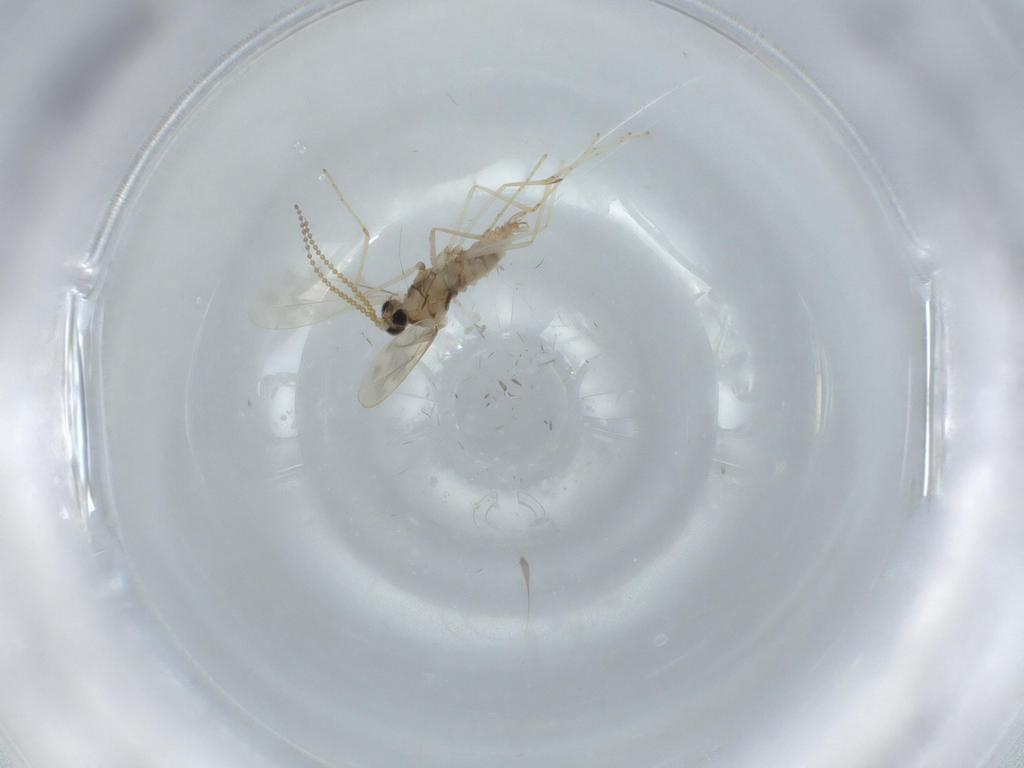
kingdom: Animalia
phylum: Arthropoda
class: Insecta
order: Diptera
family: Cecidomyiidae
